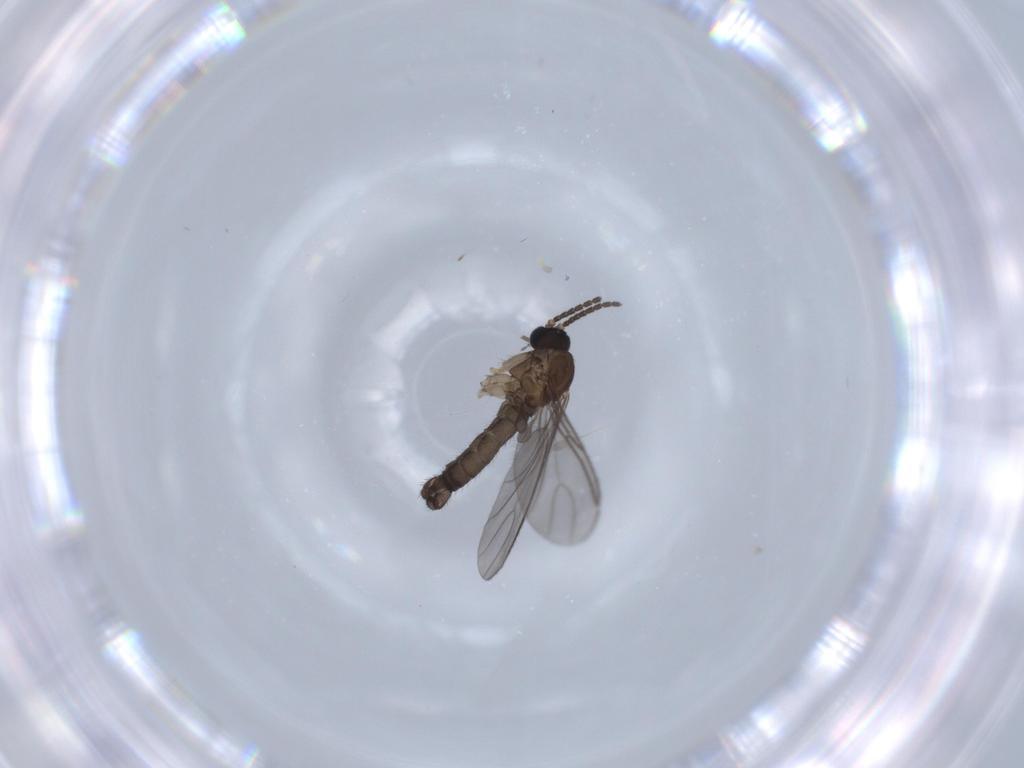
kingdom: Animalia
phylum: Arthropoda
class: Insecta
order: Diptera
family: Sciaridae
